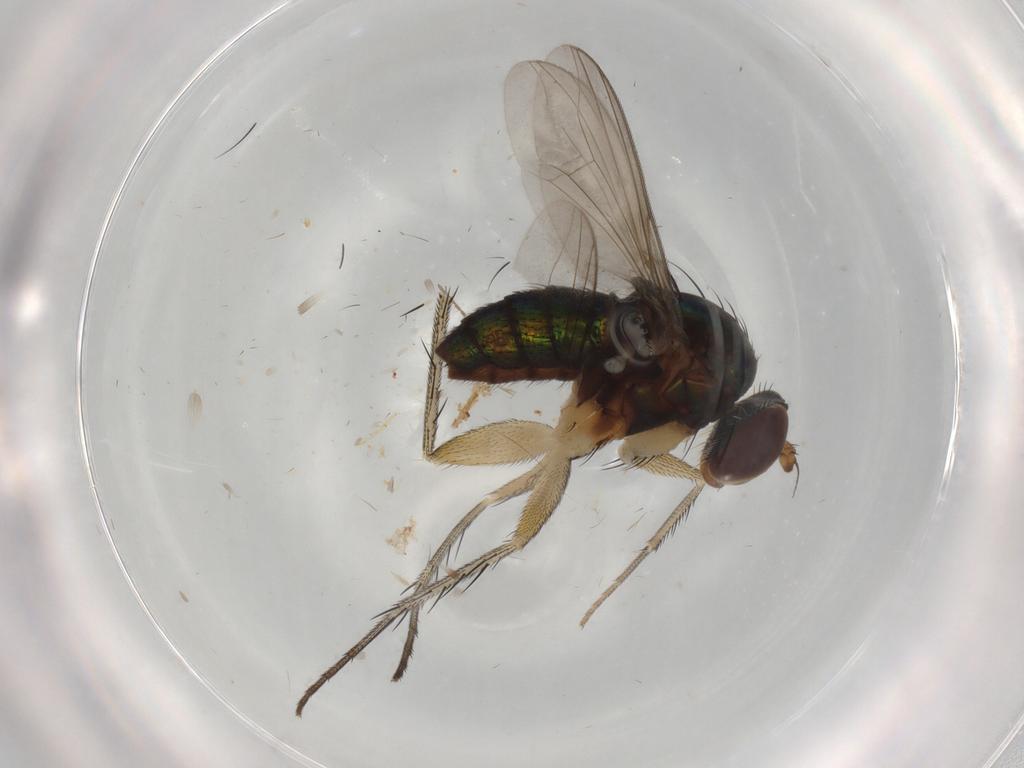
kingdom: Animalia
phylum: Arthropoda
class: Insecta
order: Diptera
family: Dolichopodidae
